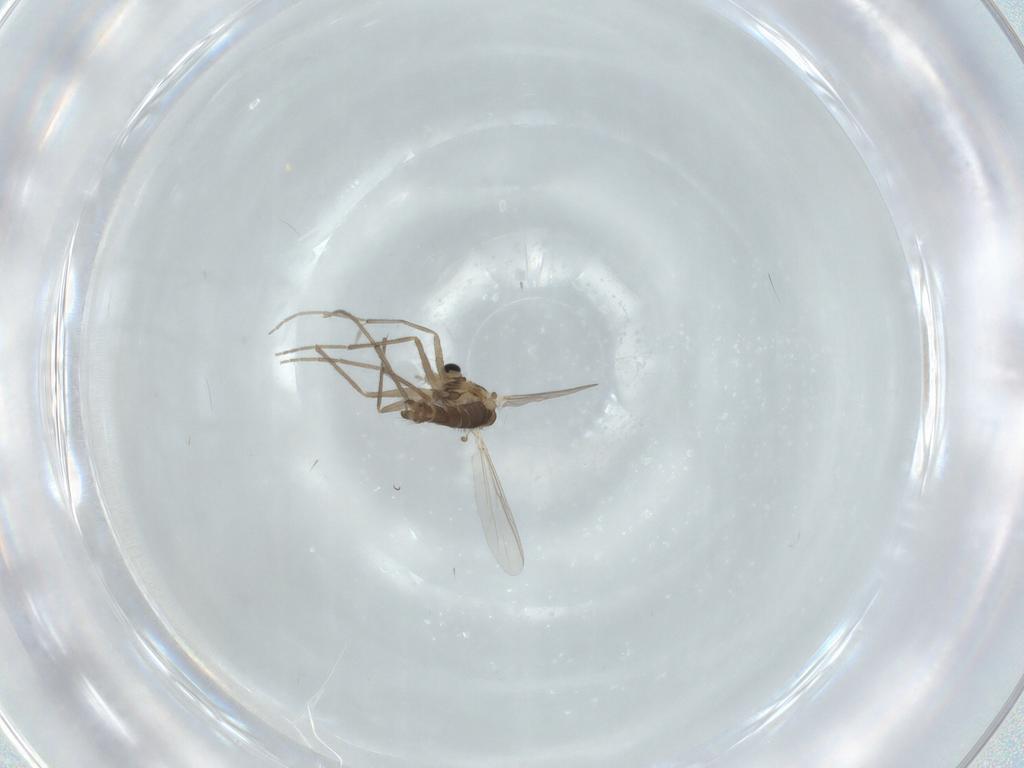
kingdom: Animalia
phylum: Arthropoda
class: Insecta
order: Diptera
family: Chironomidae
